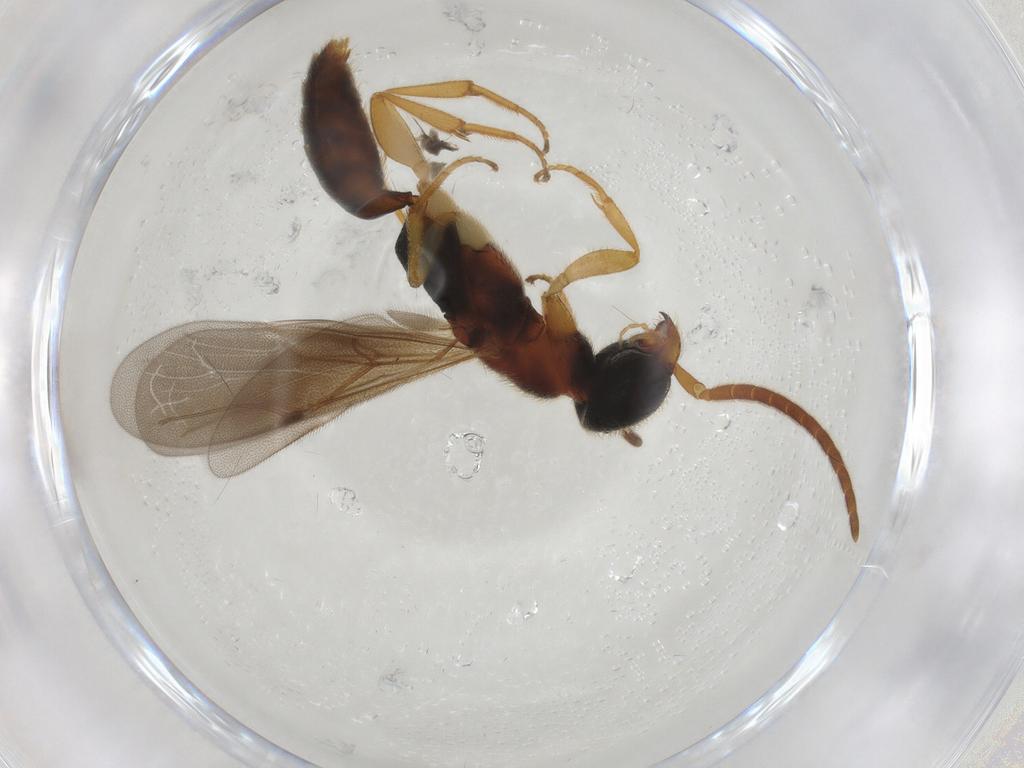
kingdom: Animalia
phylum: Arthropoda
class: Insecta
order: Hymenoptera
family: Bethylidae
